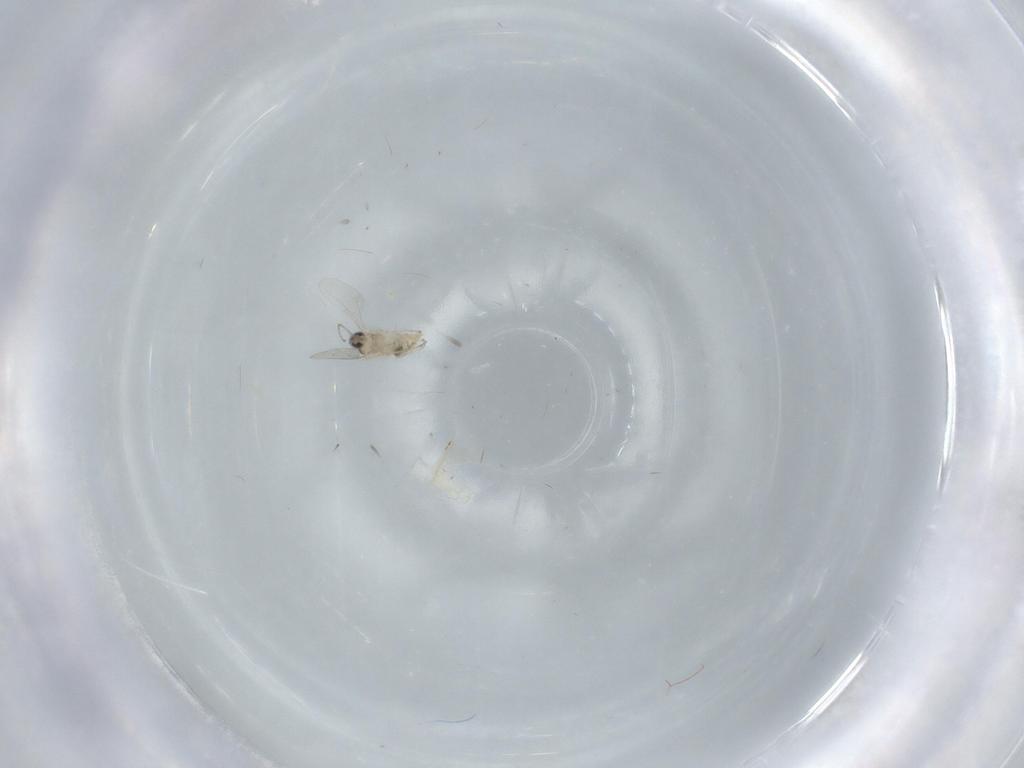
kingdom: Animalia
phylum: Arthropoda
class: Insecta
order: Diptera
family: Cecidomyiidae
